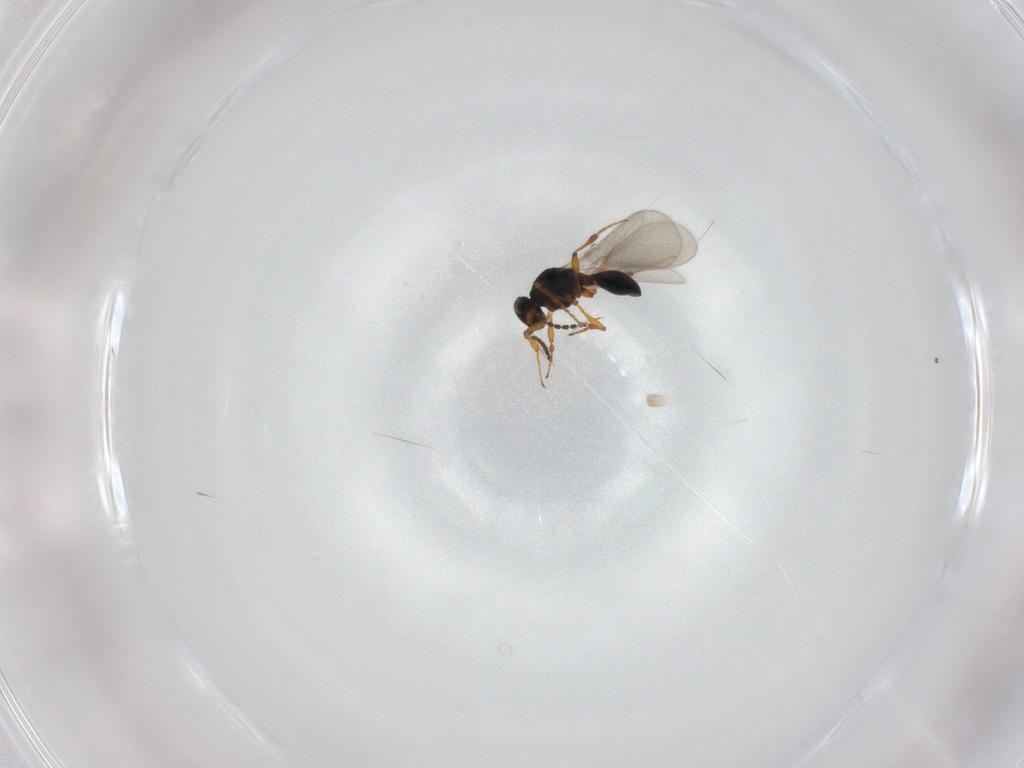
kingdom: Animalia
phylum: Arthropoda
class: Insecta
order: Hymenoptera
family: Platygastridae
